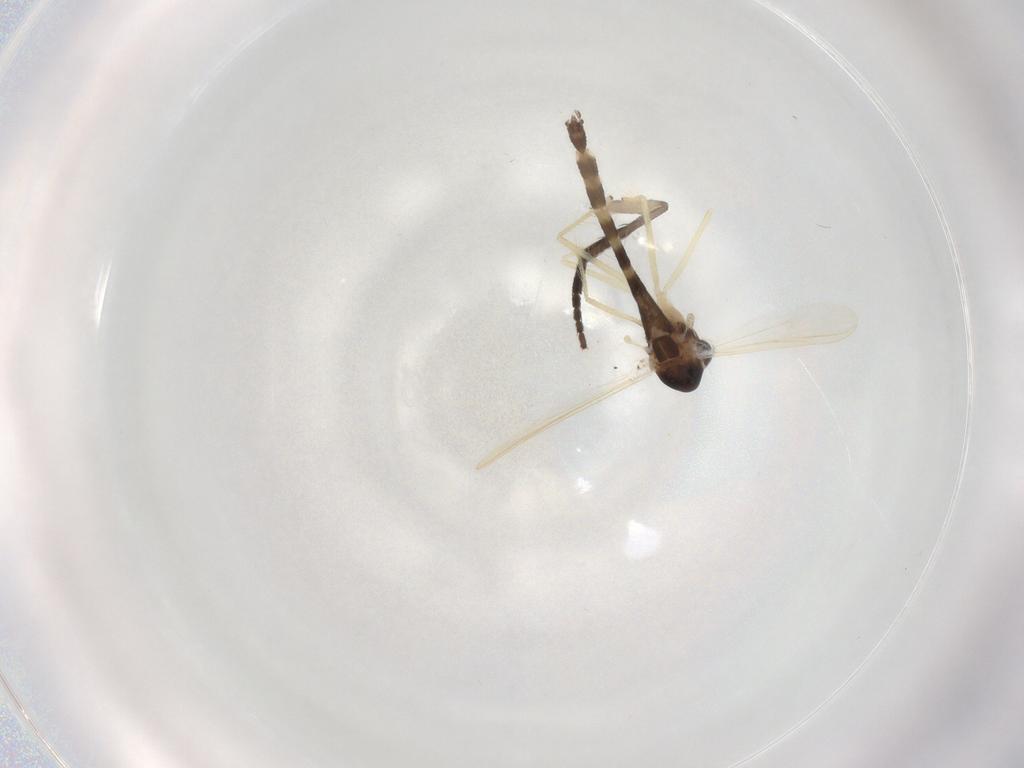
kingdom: Animalia
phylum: Arthropoda
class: Insecta
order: Diptera
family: Chironomidae
